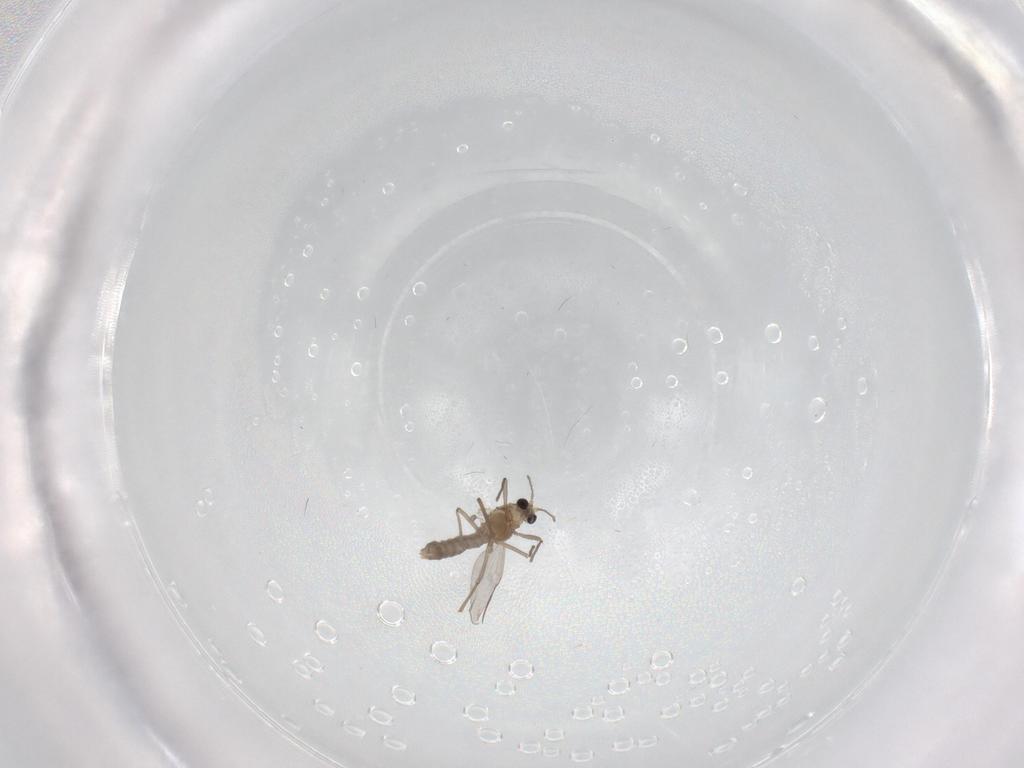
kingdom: Animalia
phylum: Arthropoda
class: Insecta
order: Diptera
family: Chironomidae
